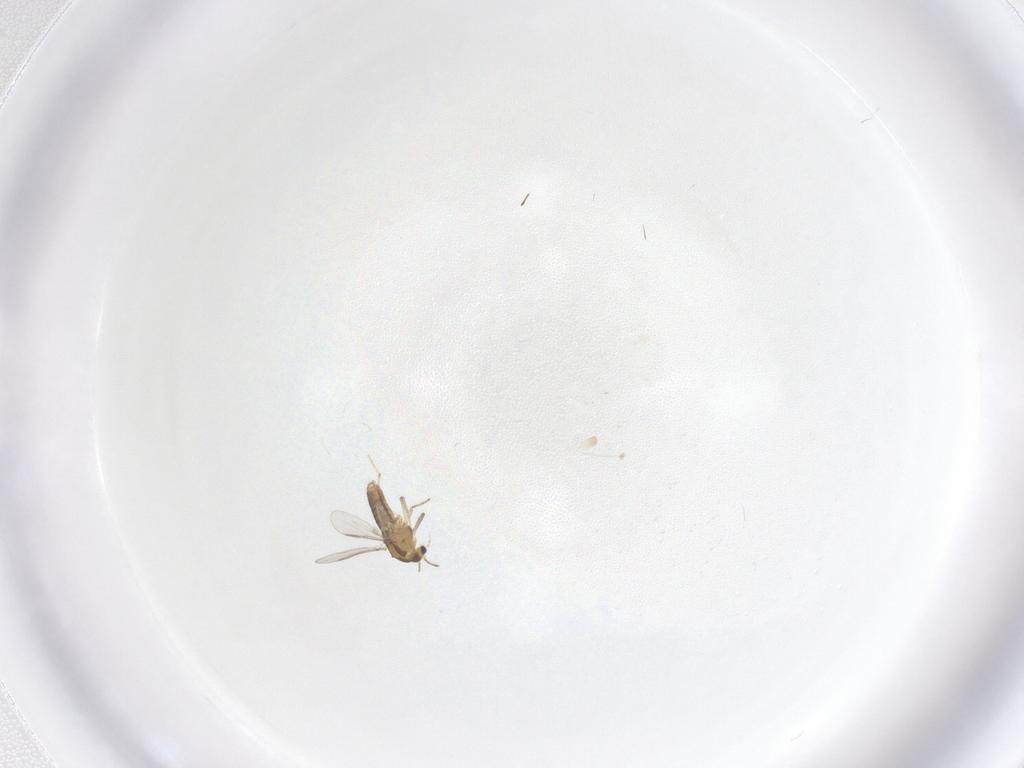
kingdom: Animalia
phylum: Arthropoda
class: Insecta
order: Diptera
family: Chironomidae
